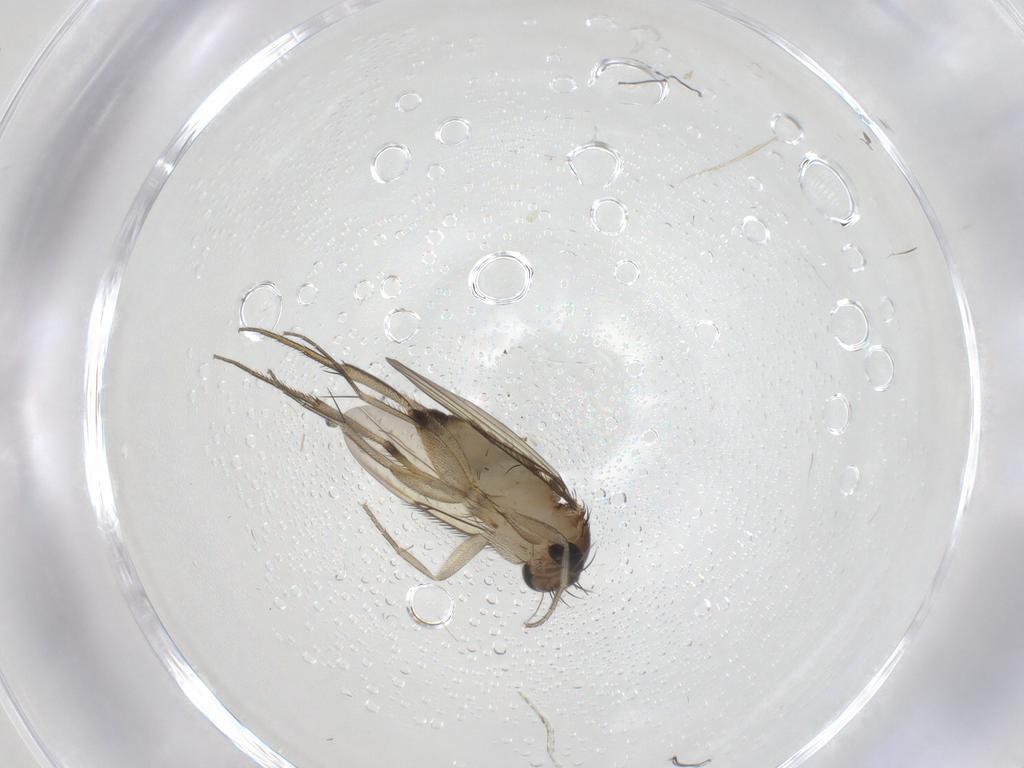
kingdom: Animalia
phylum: Arthropoda
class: Insecta
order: Diptera
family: Phoridae
